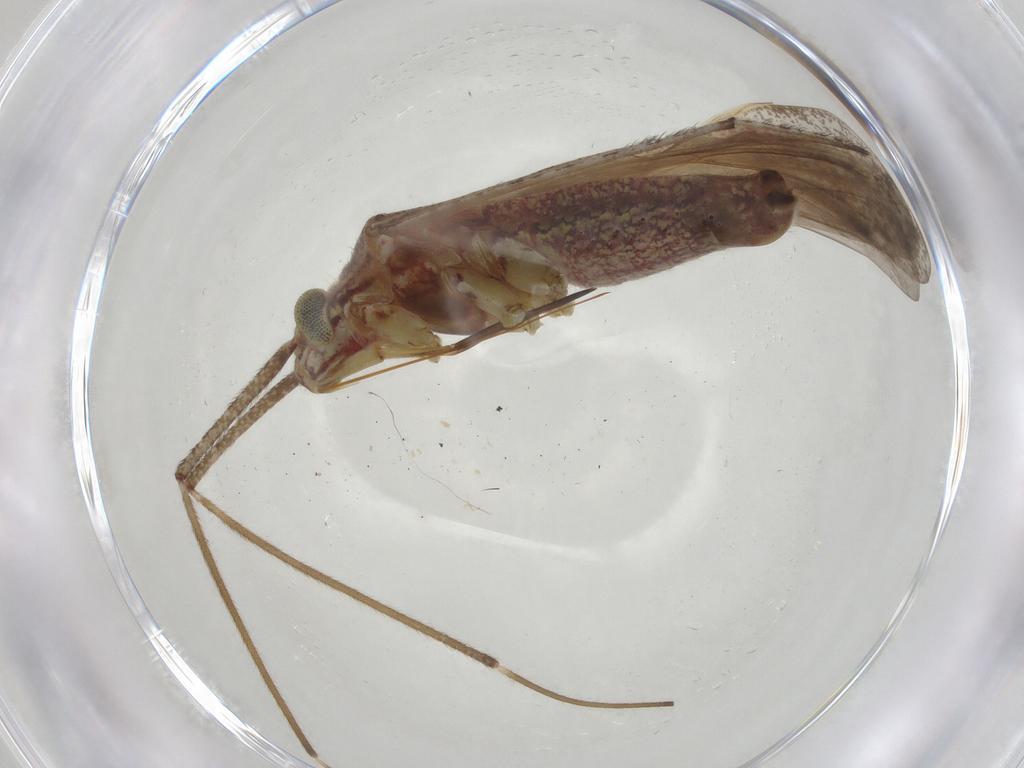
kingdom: Animalia
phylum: Arthropoda
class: Insecta
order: Hemiptera
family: Miridae
